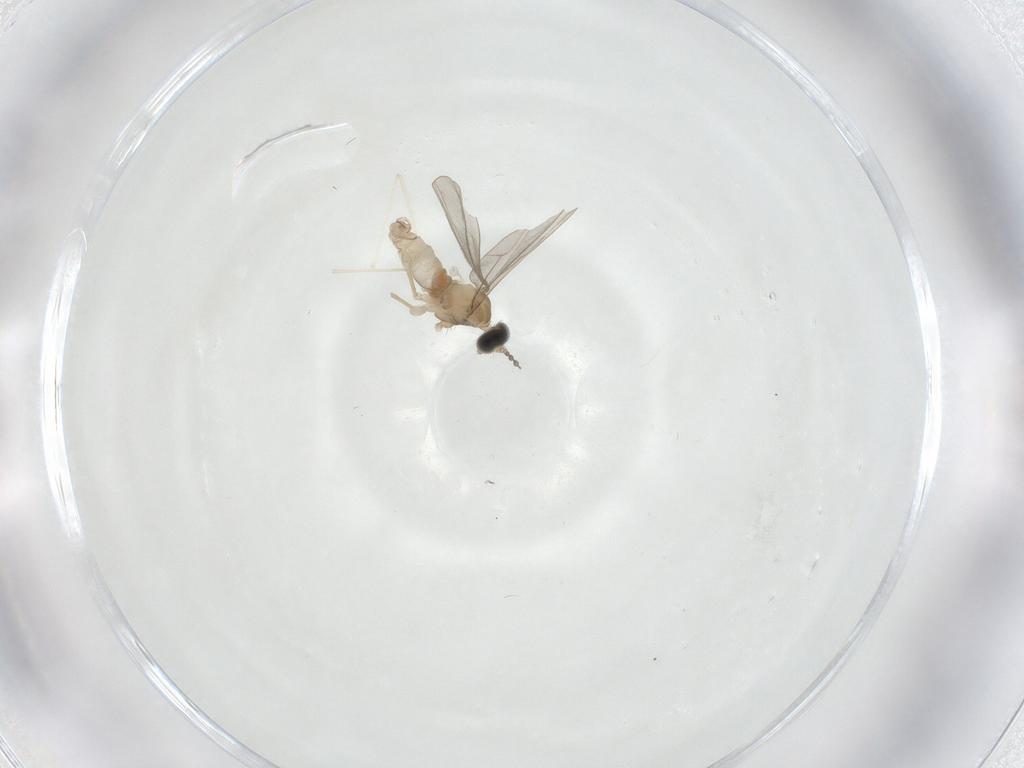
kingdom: Animalia
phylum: Arthropoda
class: Insecta
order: Diptera
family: Cecidomyiidae
